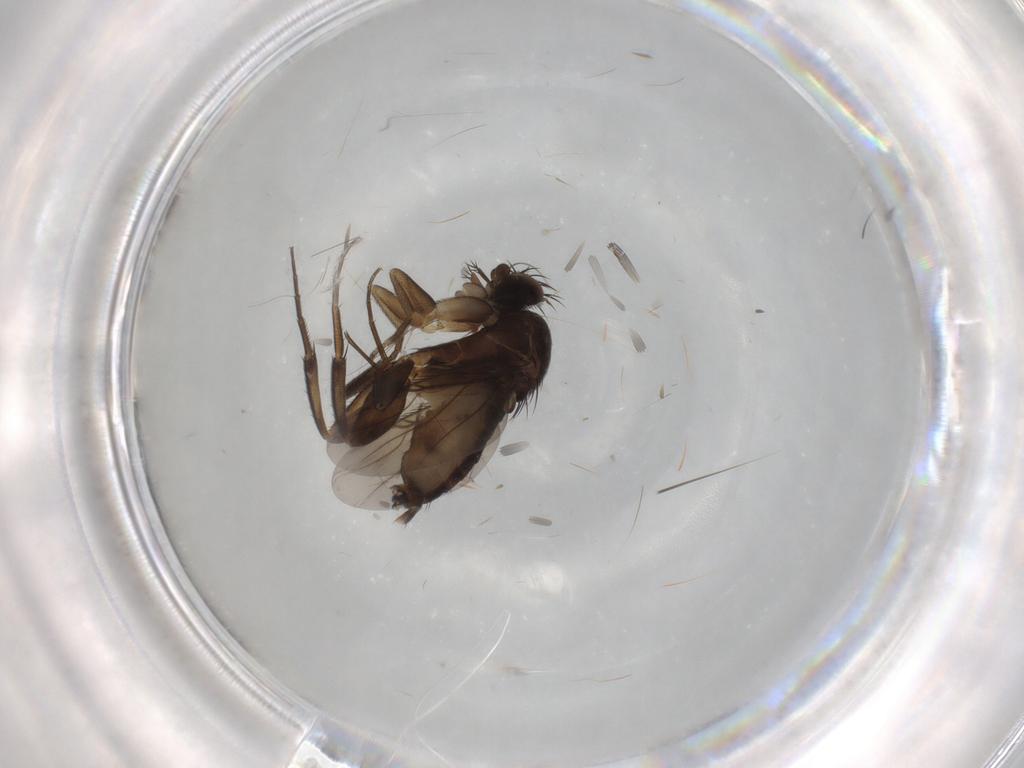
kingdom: Animalia
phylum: Arthropoda
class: Insecta
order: Diptera
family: Phoridae
